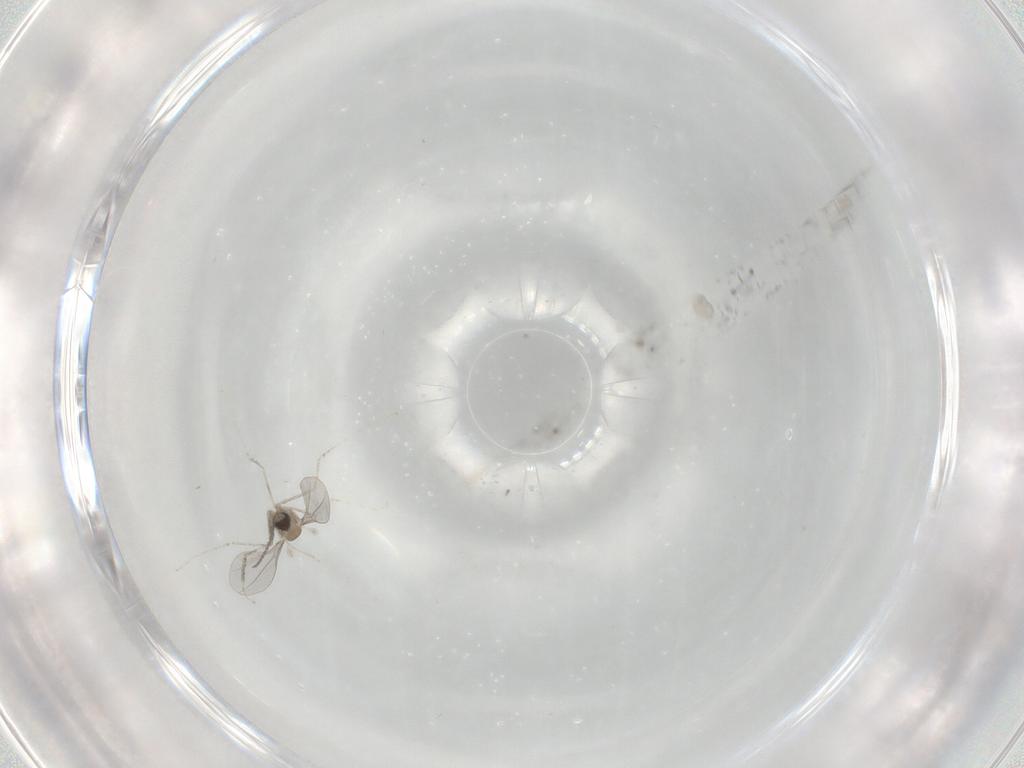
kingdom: Animalia
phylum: Arthropoda
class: Insecta
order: Diptera
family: Cecidomyiidae
